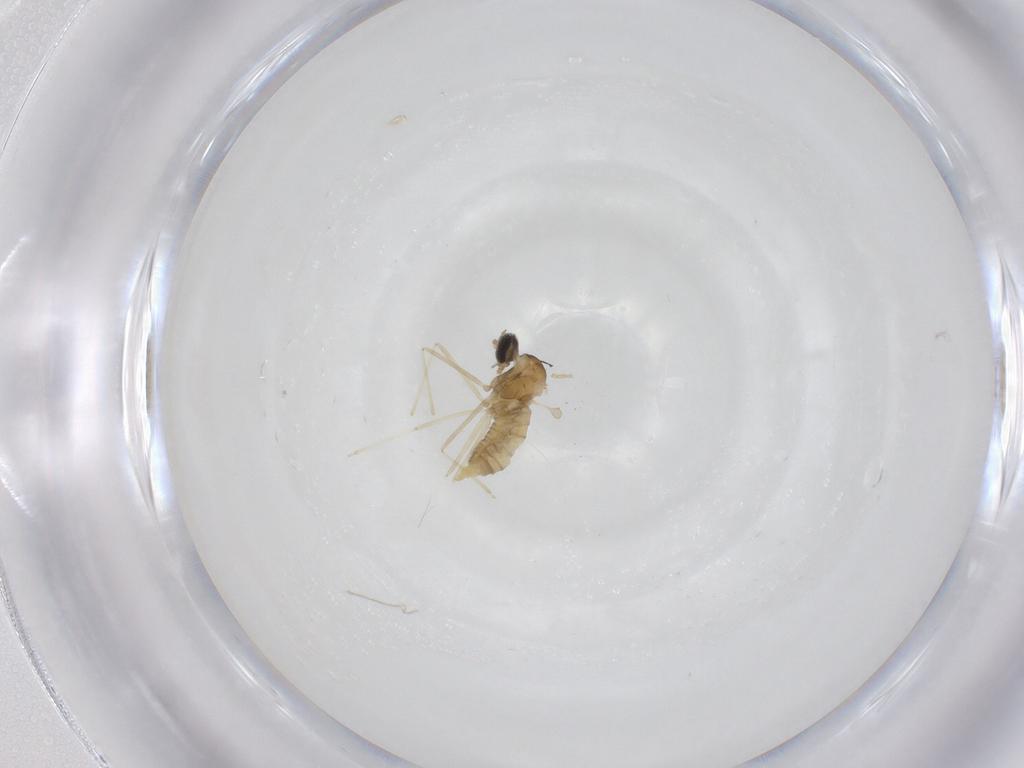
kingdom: Animalia
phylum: Arthropoda
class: Insecta
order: Diptera
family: Cecidomyiidae
